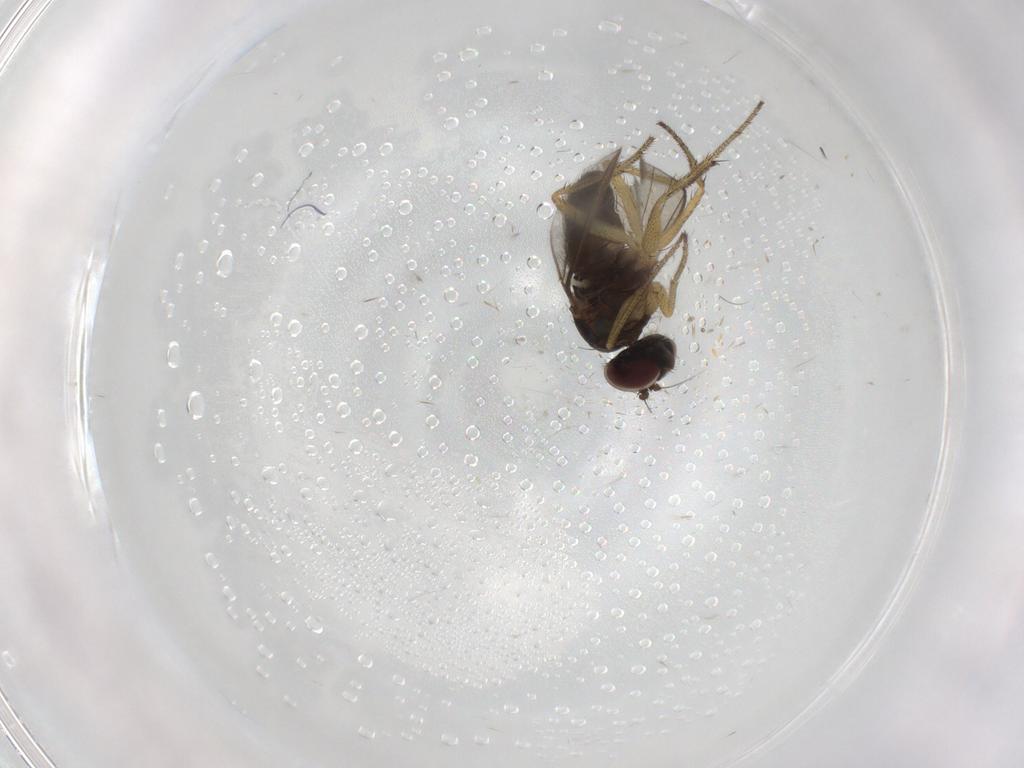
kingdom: Animalia
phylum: Arthropoda
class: Insecta
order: Diptera
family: Dolichopodidae
